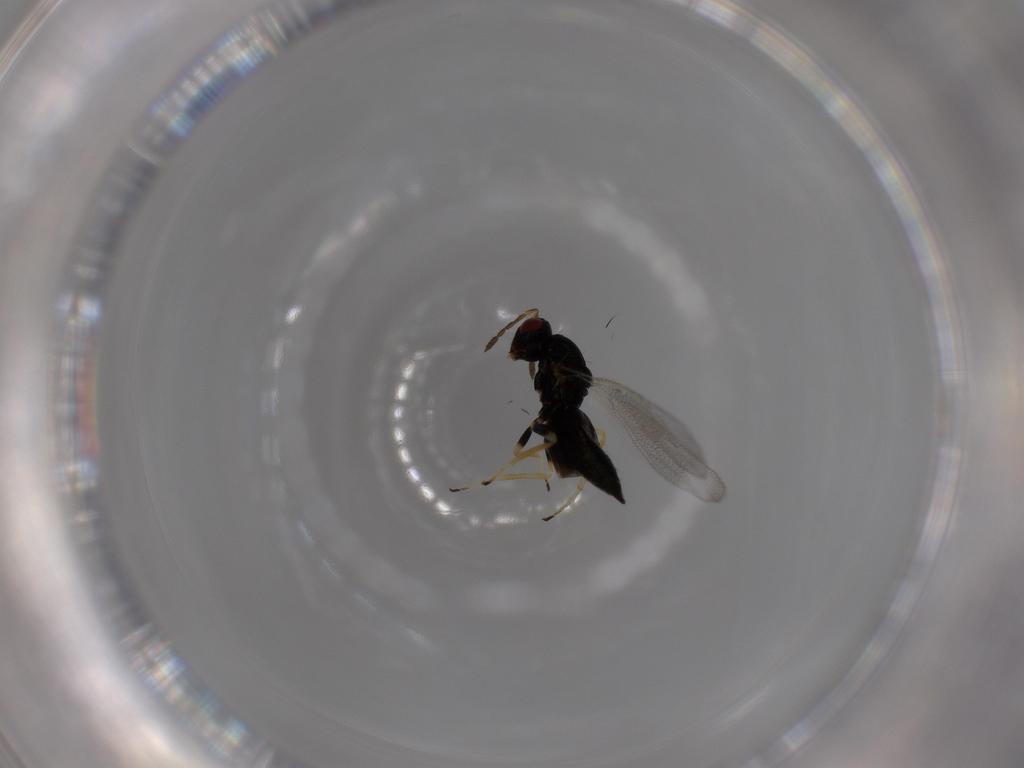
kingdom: Animalia
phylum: Arthropoda
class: Insecta
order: Hymenoptera
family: Eulophidae
